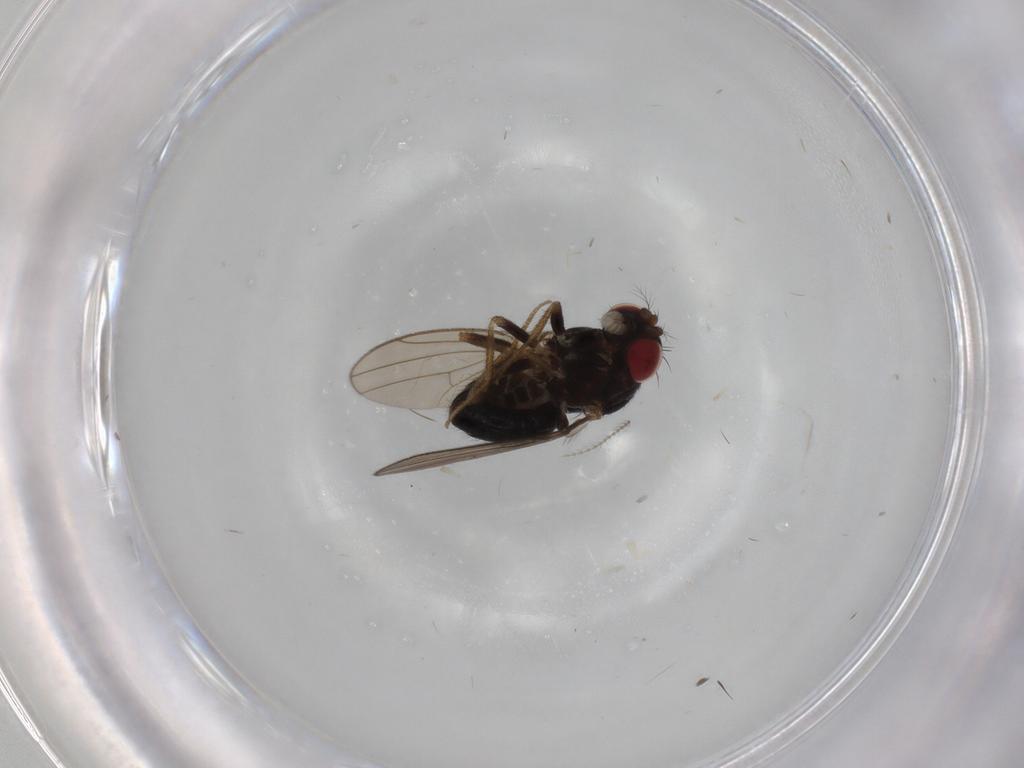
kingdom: Animalia
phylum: Arthropoda
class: Insecta
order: Diptera
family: Drosophilidae
